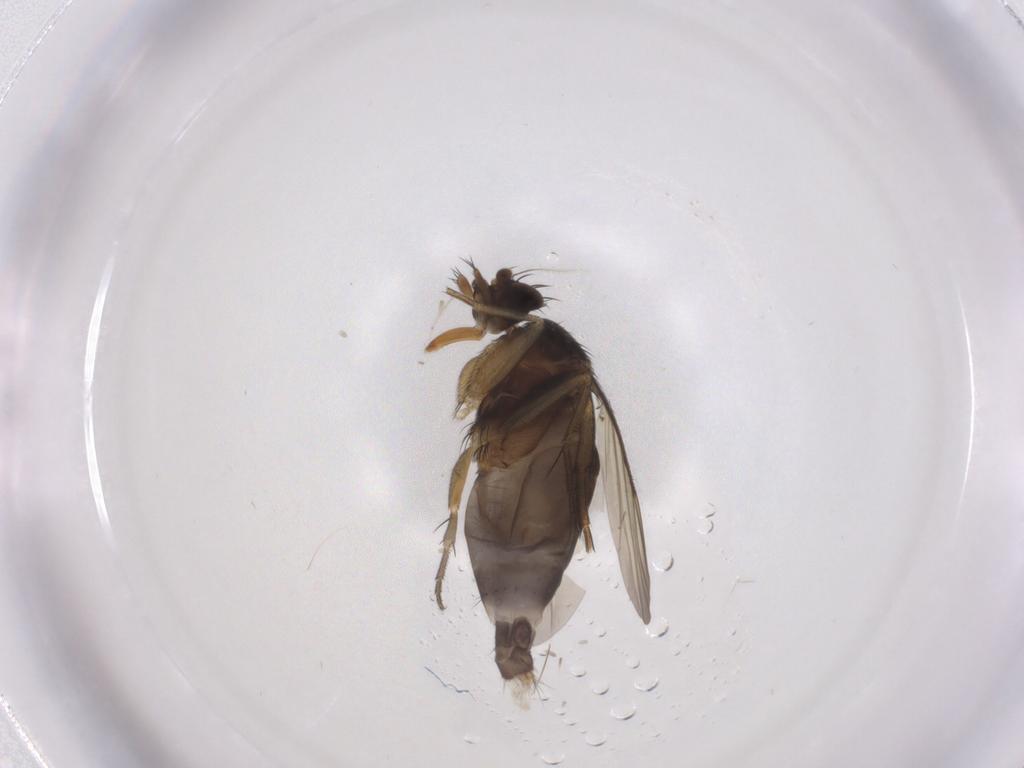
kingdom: Animalia
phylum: Arthropoda
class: Insecta
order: Diptera
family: Phoridae
